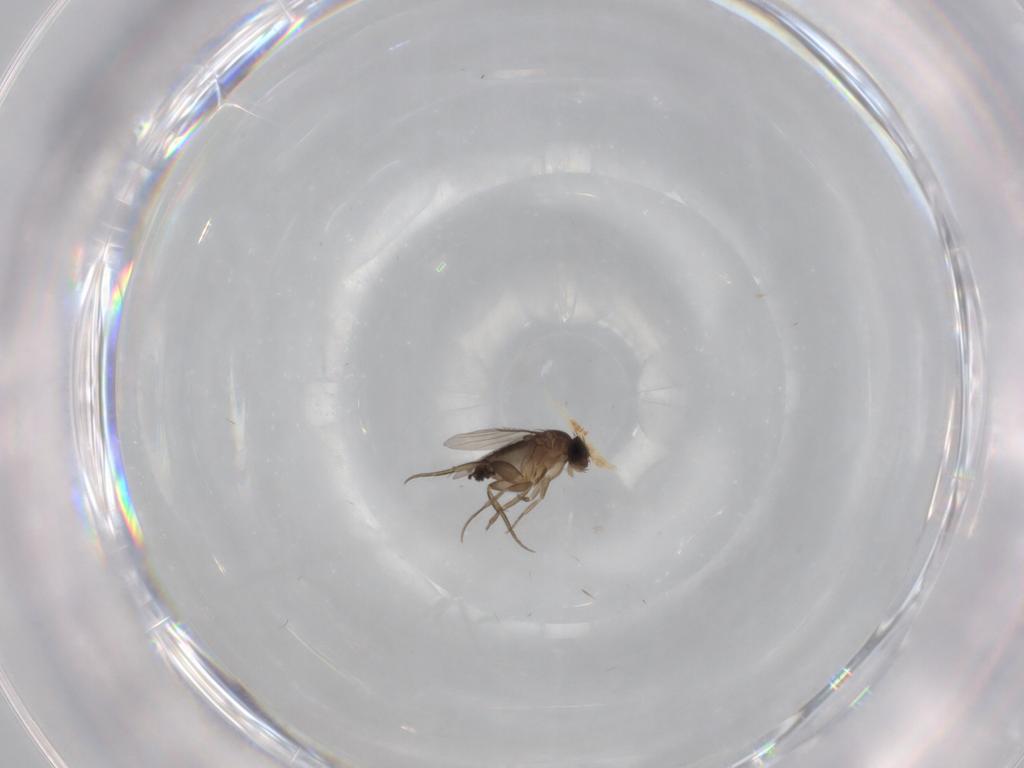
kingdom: Animalia
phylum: Arthropoda
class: Insecta
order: Diptera
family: Phoridae
